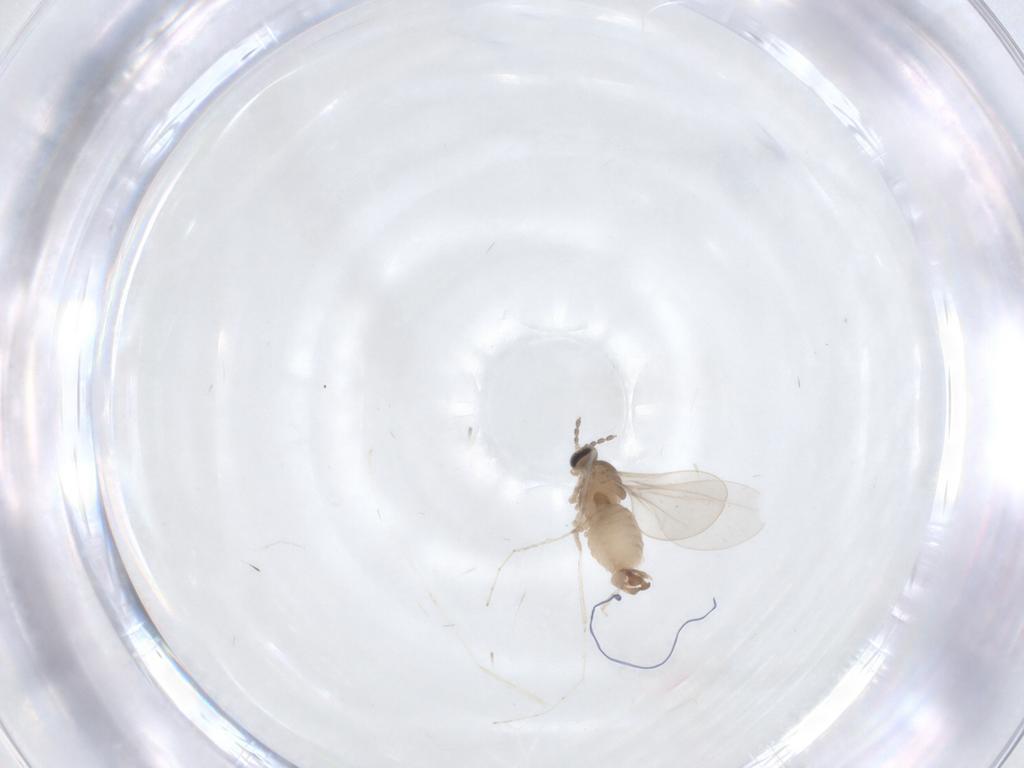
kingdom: Animalia
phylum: Arthropoda
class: Insecta
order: Diptera
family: Cecidomyiidae
